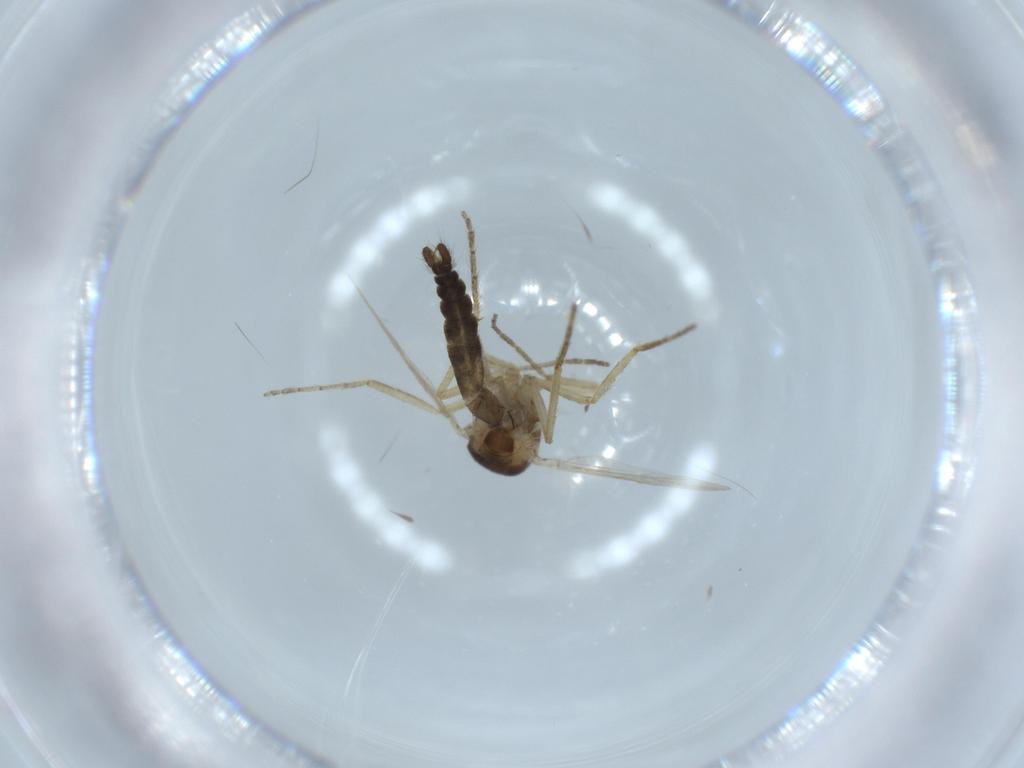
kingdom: Animalia
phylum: Arthropoda
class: Insecta
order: Diptera
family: Ceratopogonidae
